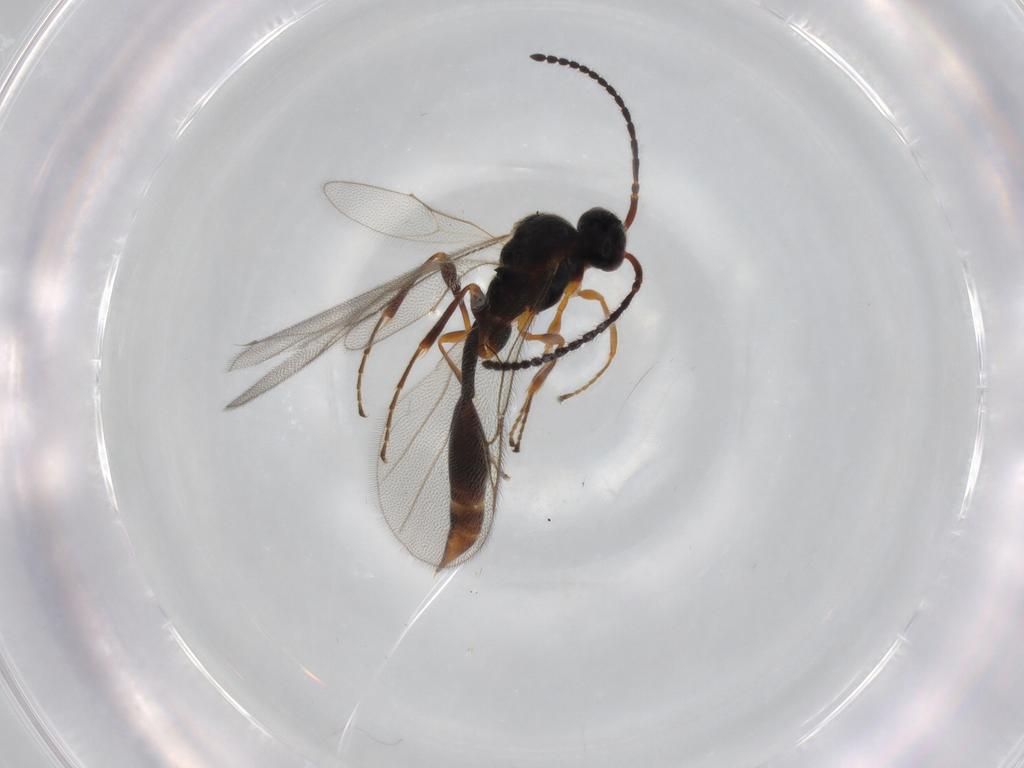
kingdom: Animalia
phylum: Arthropoda
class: Insecta
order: Hymenoptera
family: Diapriidae
